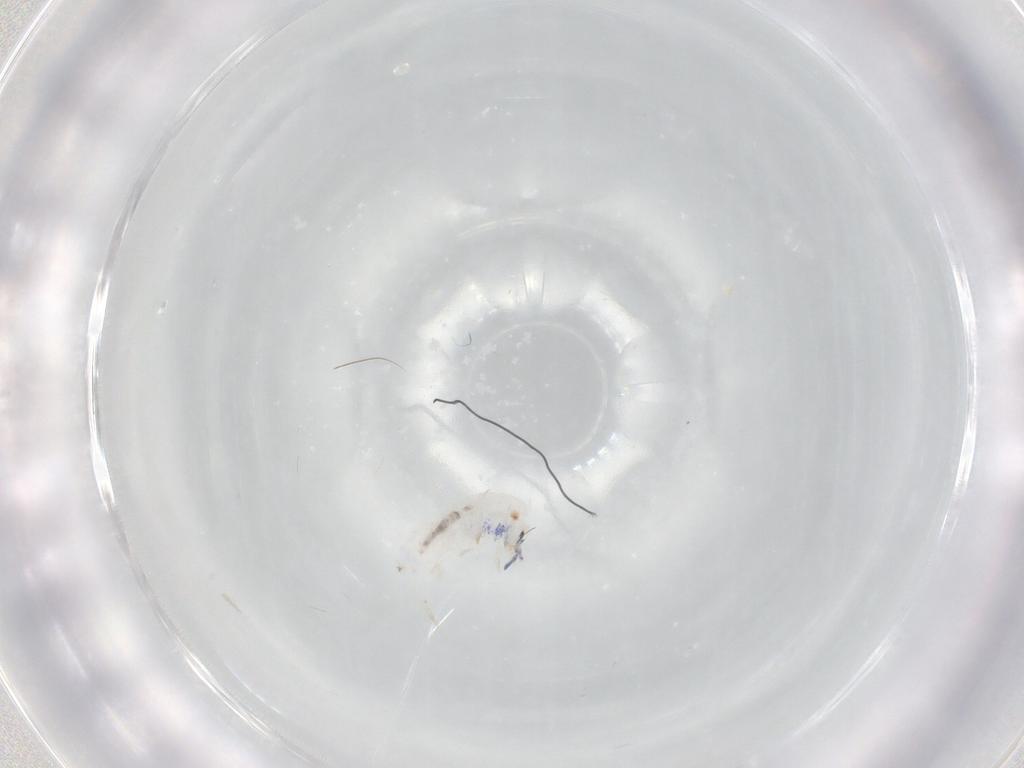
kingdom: Animalia
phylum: Arthropoda
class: Collembola
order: Entomobryomorpha
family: Entomobryidae
